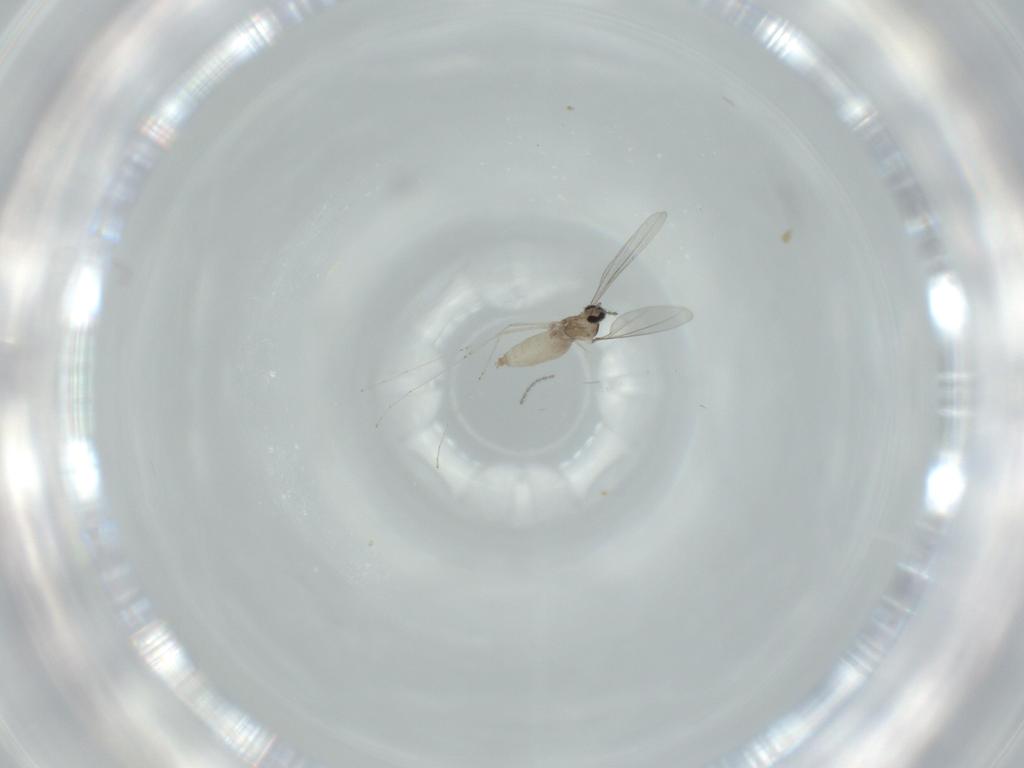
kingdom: Animalia
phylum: Arthropoda
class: Insecta
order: Diptera
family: Cecidomyiidae
